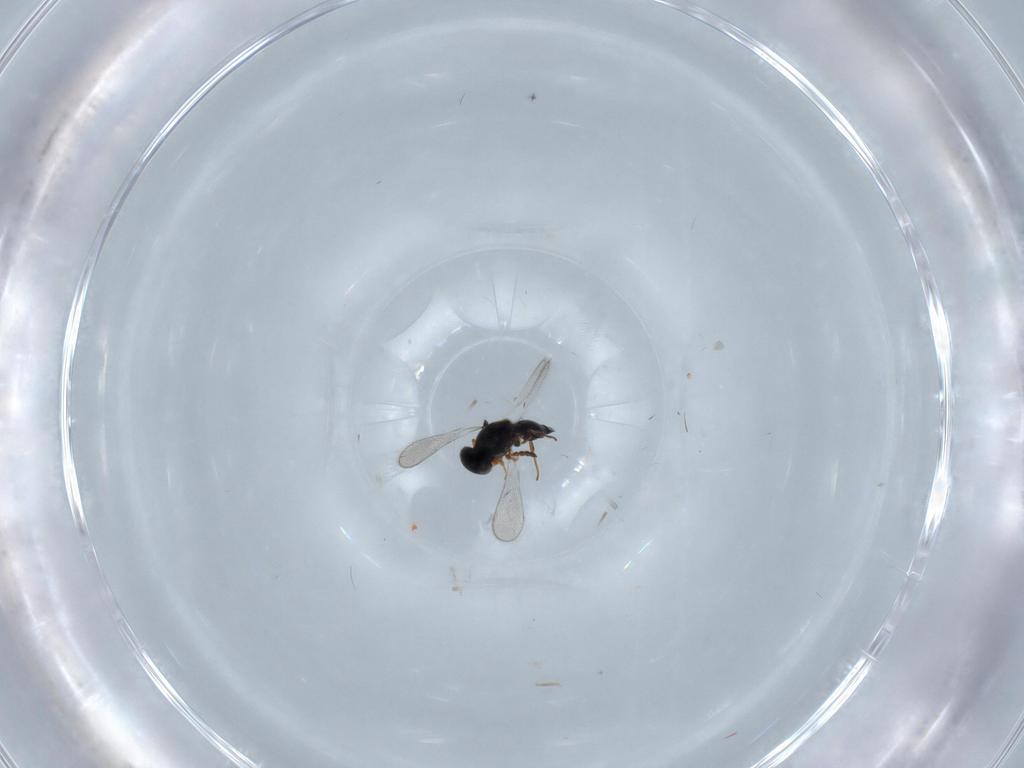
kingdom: Animalia
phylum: Arthropoda
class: Insecta
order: Hymenoptera
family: Platygastridae
